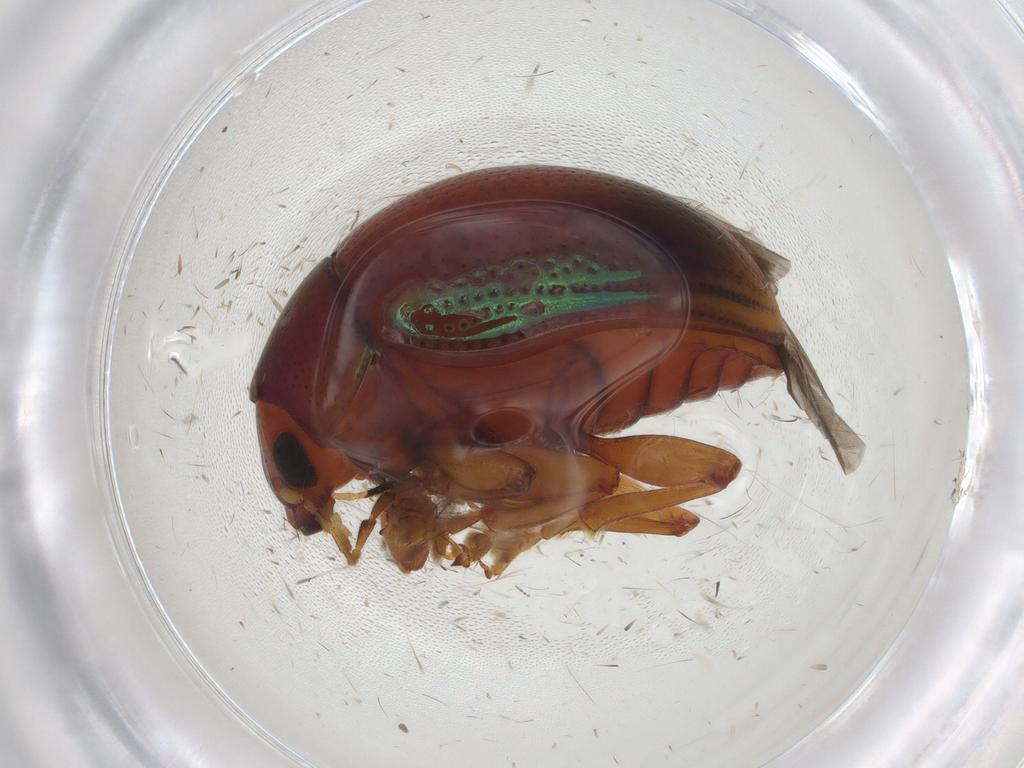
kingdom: Animalia
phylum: Arthropoda
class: Insecta
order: Coleoptera
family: Chrysomelidae
